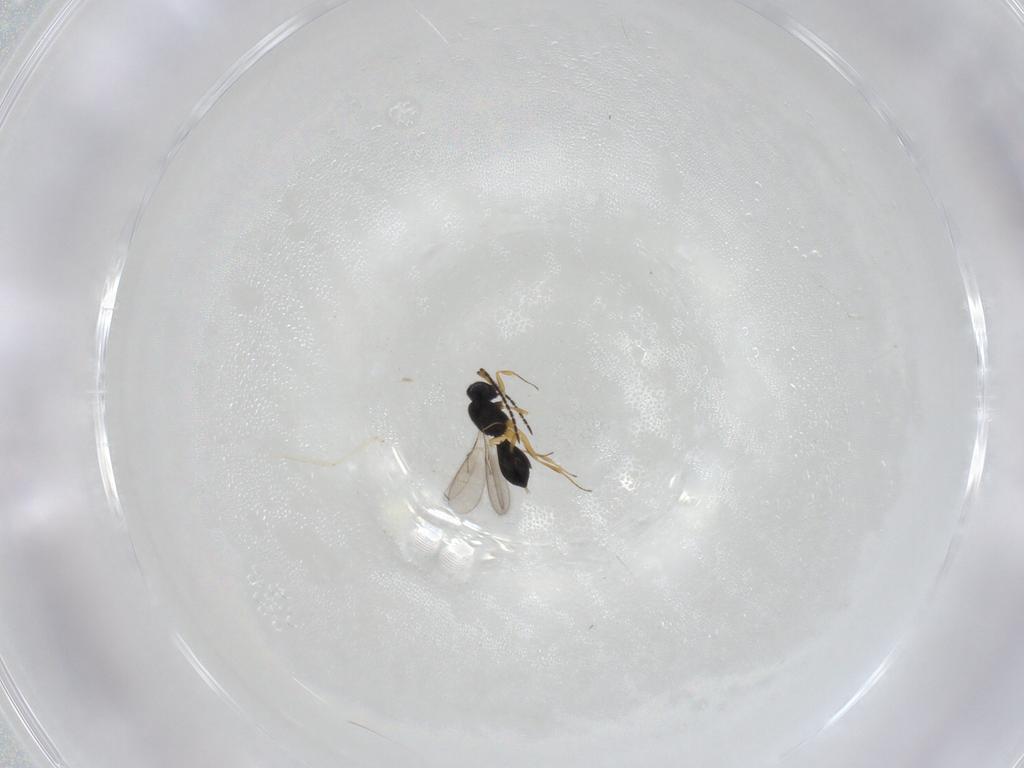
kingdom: Animalia
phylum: Arthropoda
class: Insecta
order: Hymenoptera
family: Scelionidae
